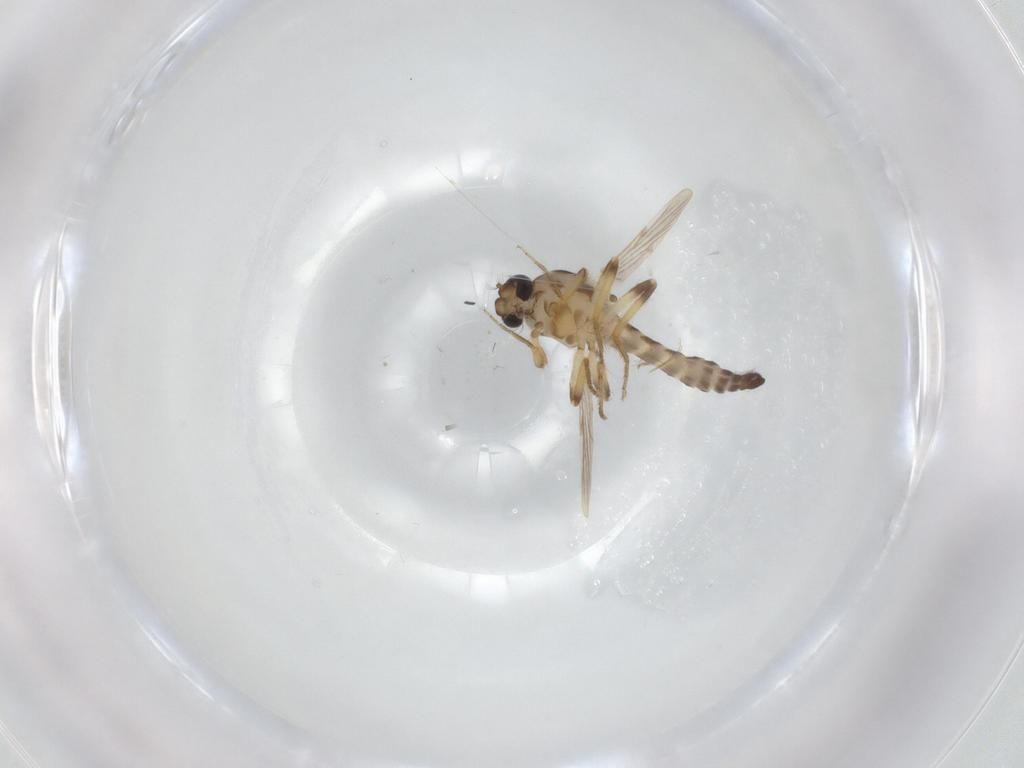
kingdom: Animalia
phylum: Arthropoda
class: Insecta
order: Diptera
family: Ceratopogonidae
